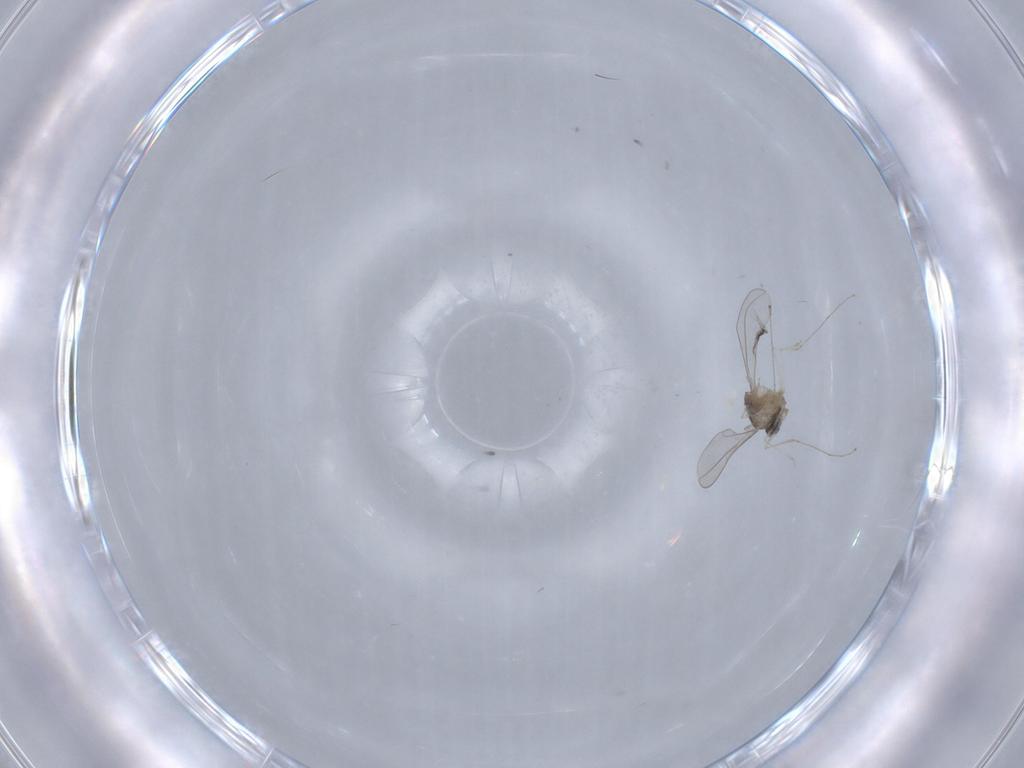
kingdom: Animalia
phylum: Arthropoda
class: Insecta
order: Diptera
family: Cecidomyiidae
